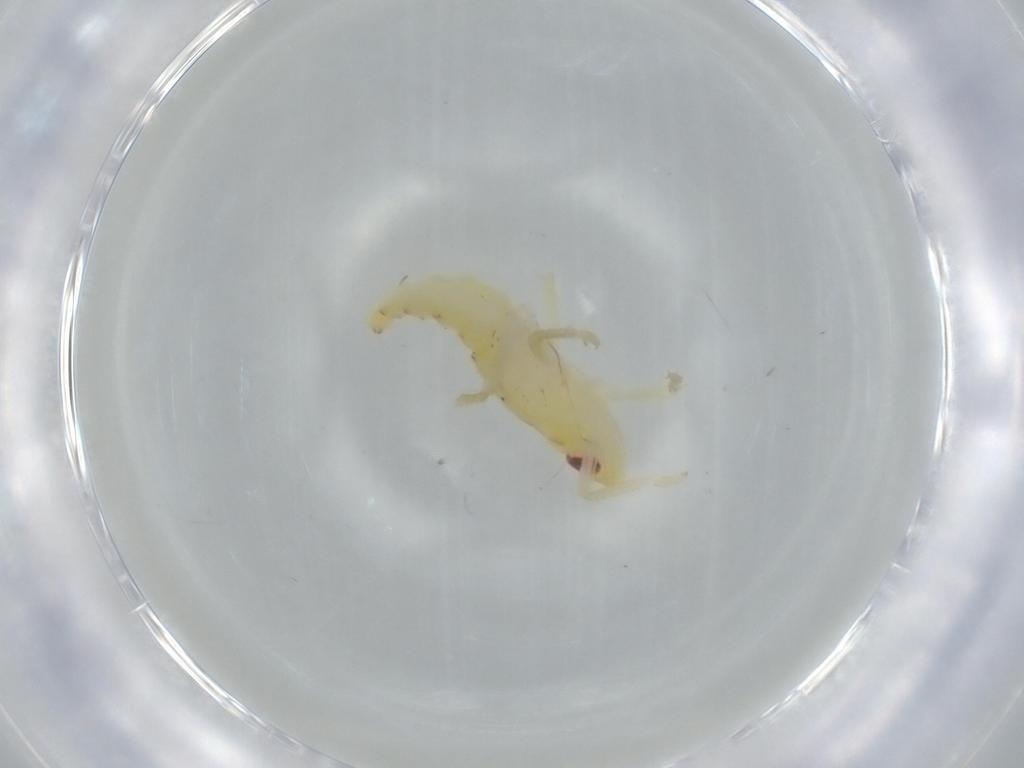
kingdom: Animalia
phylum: Arthropoda
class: Insecta
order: Hemiptera
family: Tropiduchidae
